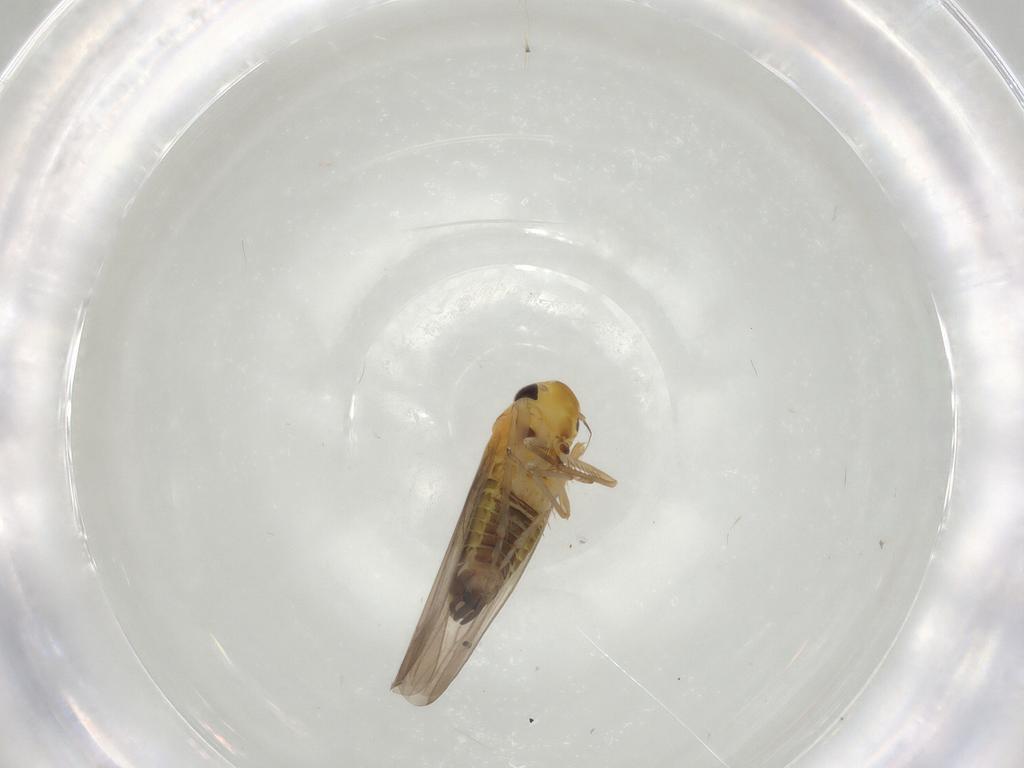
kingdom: Animalia
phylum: Arthropoda
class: Insecta
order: Hemiptera
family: Cicadellidae
